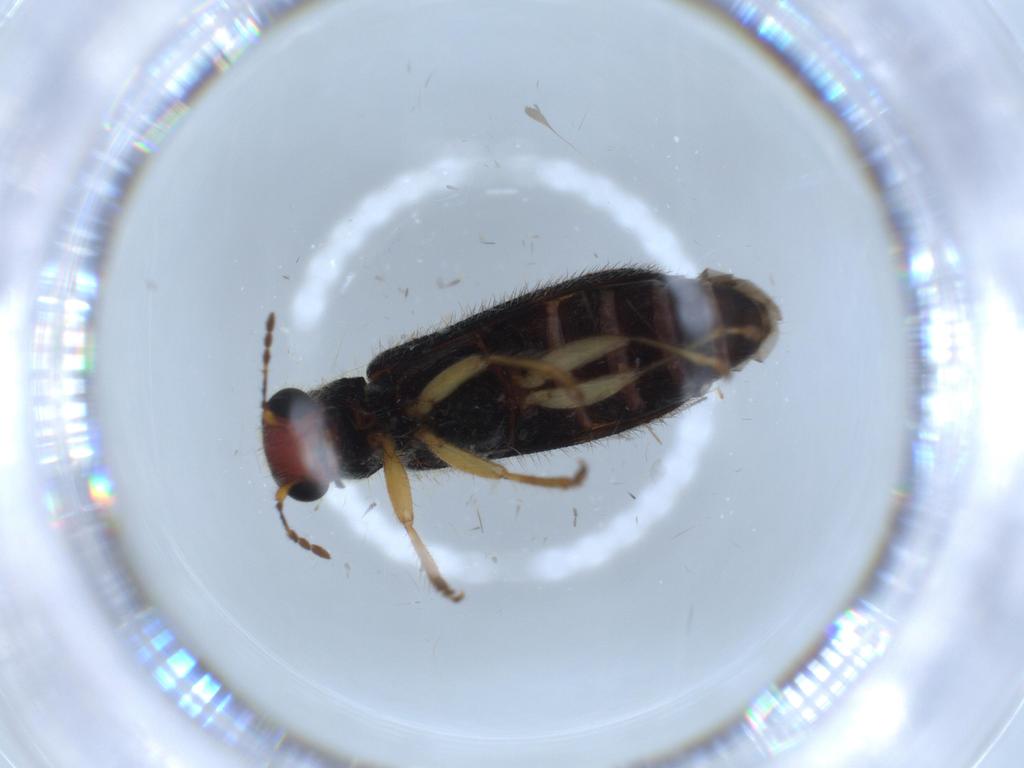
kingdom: Animalia
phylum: Arthropoda
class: Insecta
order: Coleoptera
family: Cleridae
